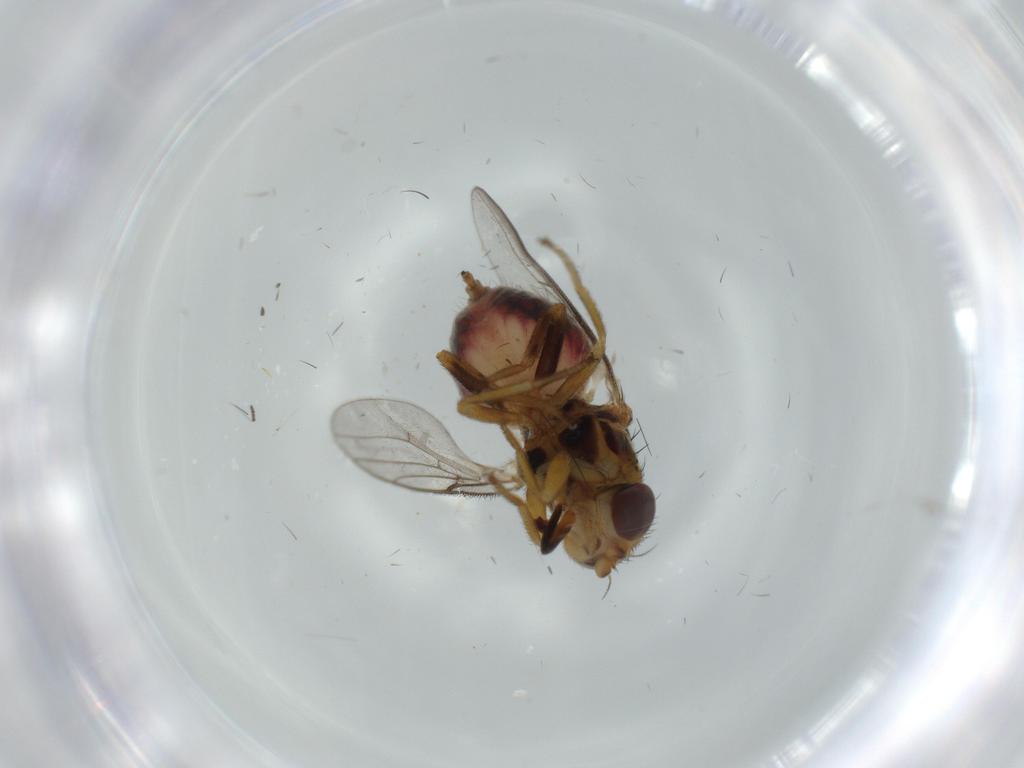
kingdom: Animalia
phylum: Arthropoda
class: Insecta
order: Diptera
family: Chloropidae
